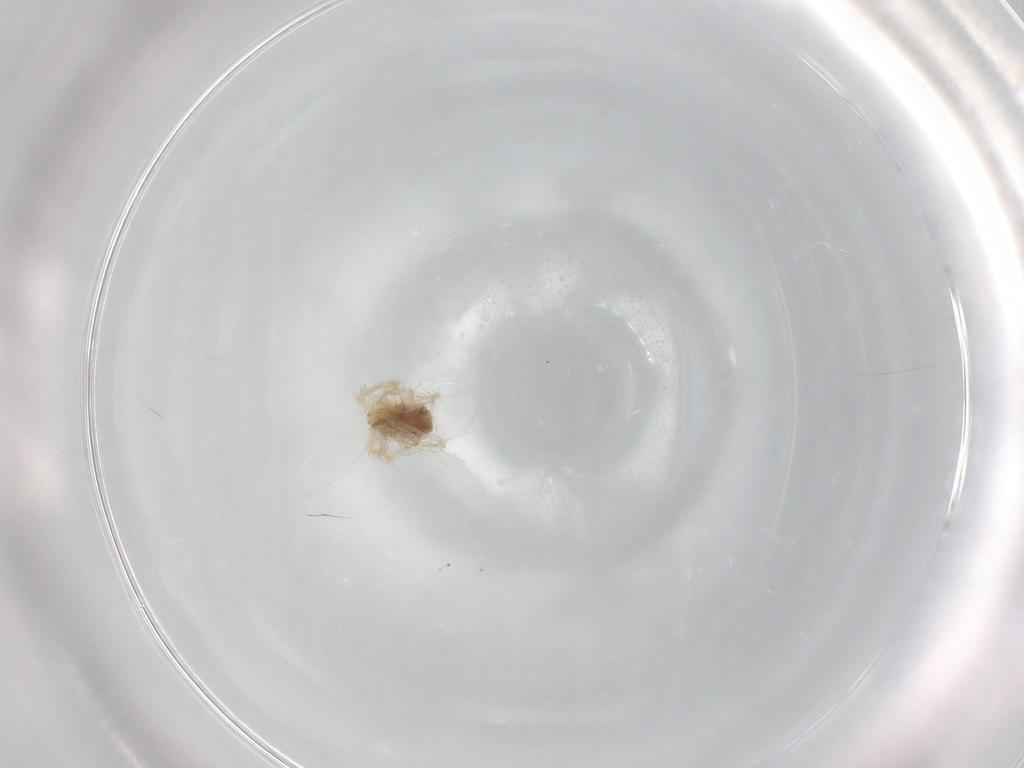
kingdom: Animalia
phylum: Arthropoda
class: Arachnida
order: Trombidiformes
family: Anystidae
